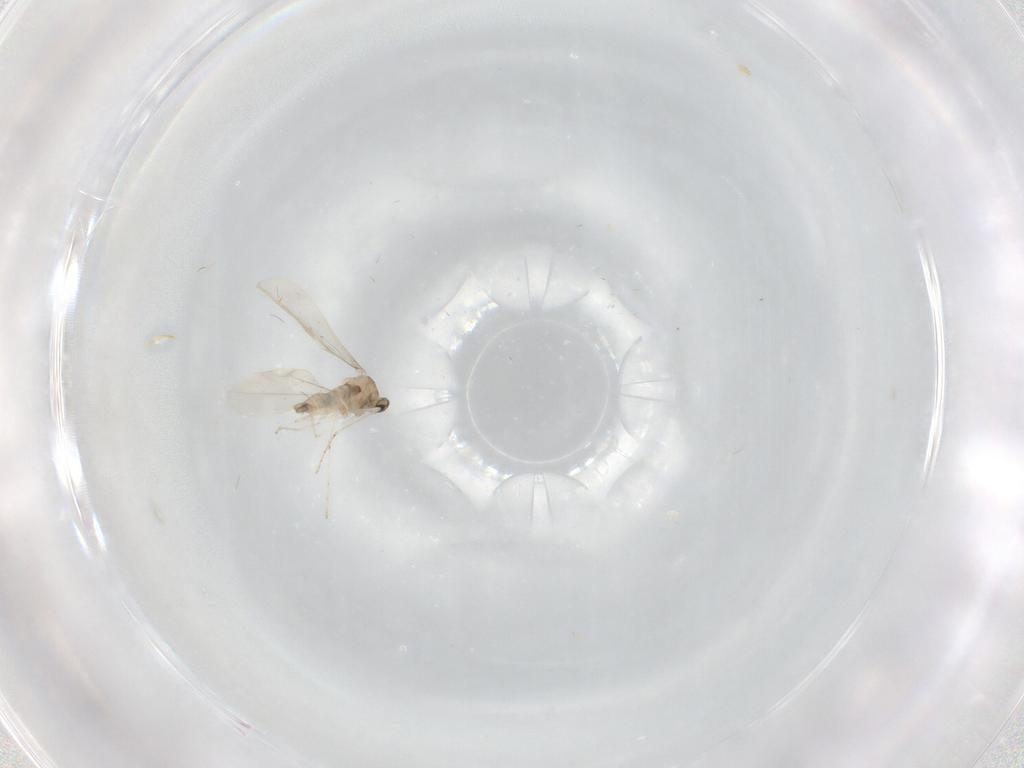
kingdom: Animalia
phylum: Arthropoda
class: Insecta
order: Diptera
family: Cecidomyiidae
